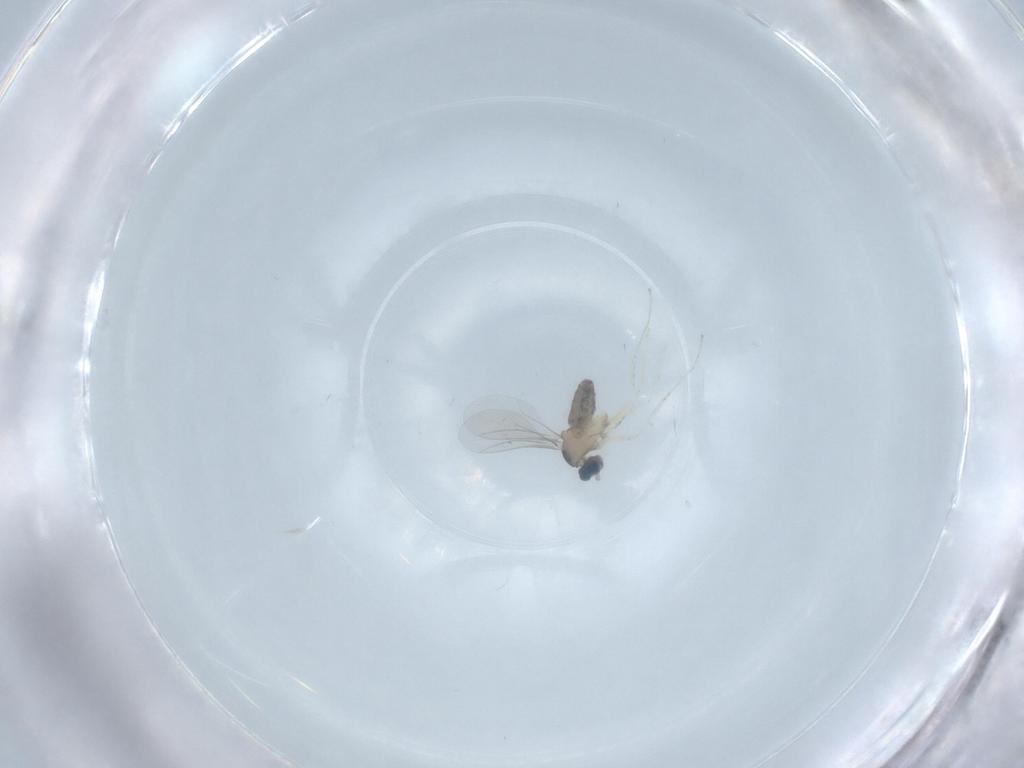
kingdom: Animalia
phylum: Arthropoda
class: Insecta
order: Diptera
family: Cecidomyiidae
